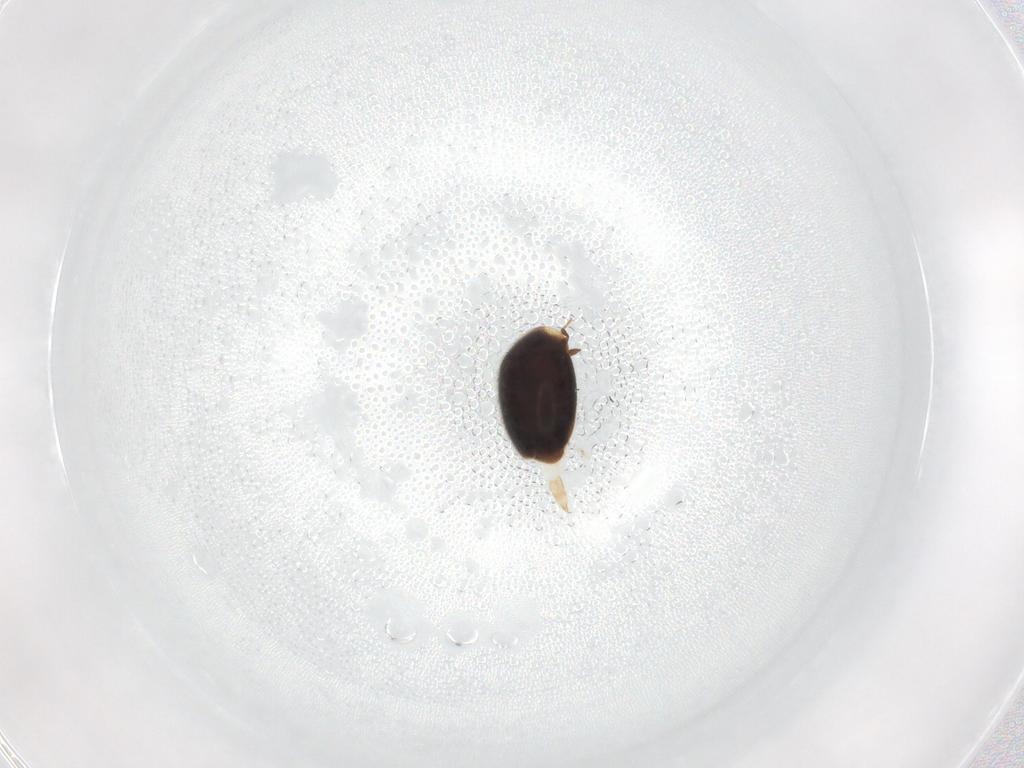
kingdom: Animalia
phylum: Arthropoda
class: Insecta
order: Coleoptera
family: Corylophidae
